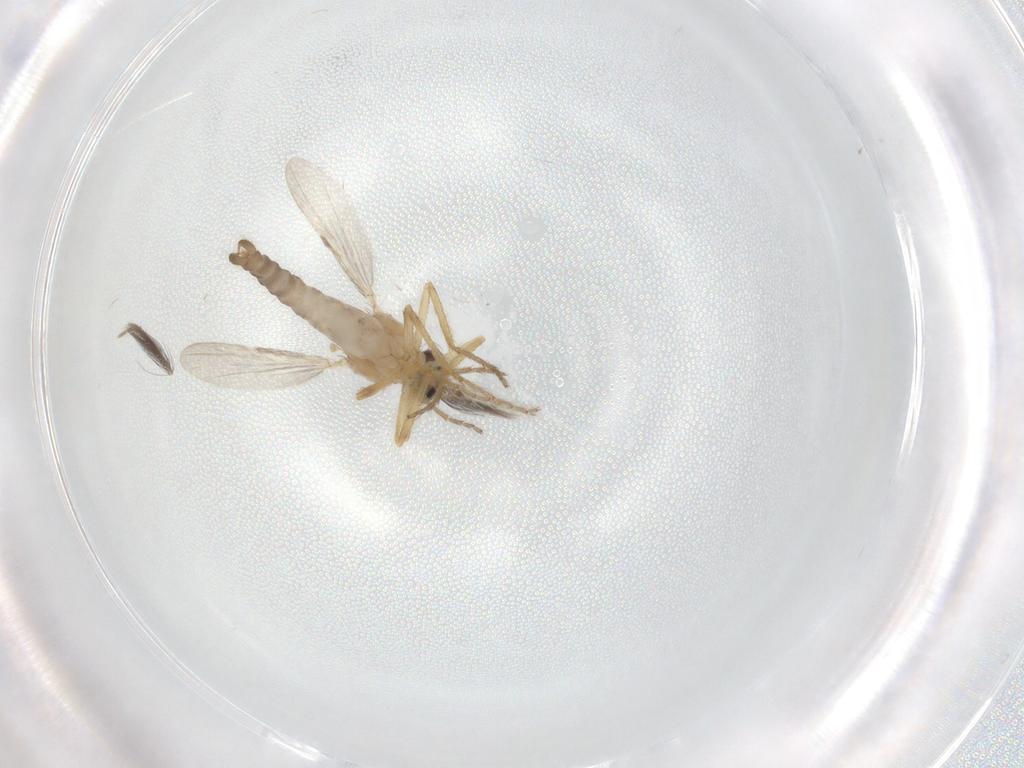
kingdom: Animalia
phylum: Arthropoda
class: Insecta
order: Diptera
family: Ceratopogonidae
